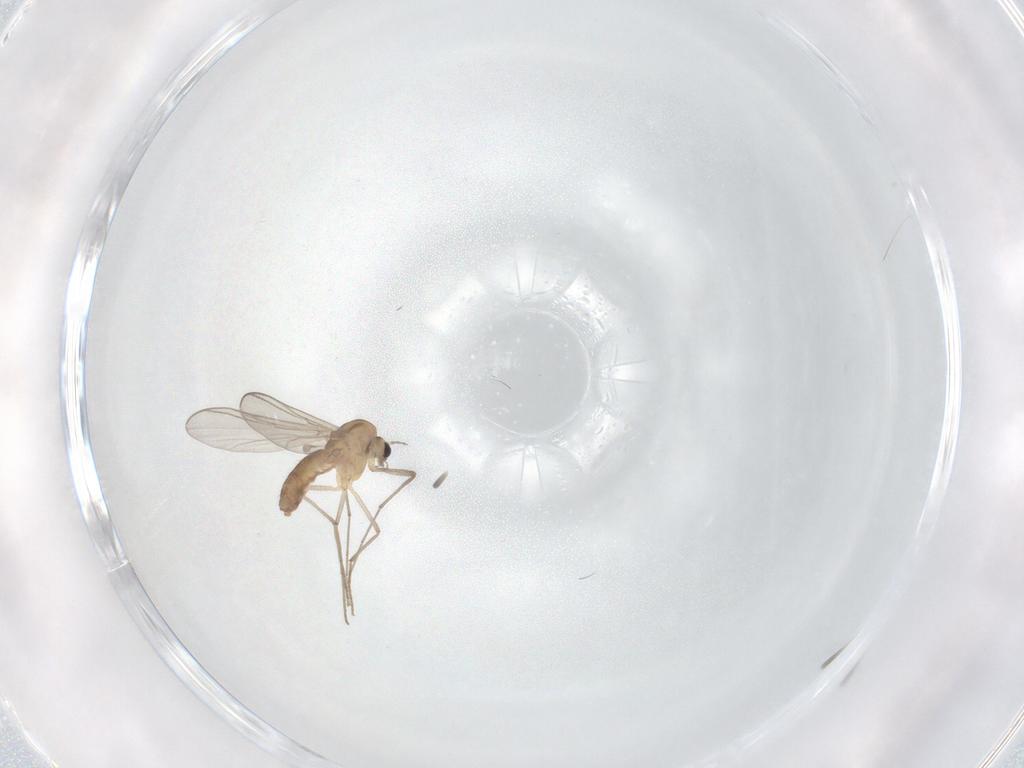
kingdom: Animalia
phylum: Arthropoda
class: Insecta
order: Diptera
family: Chironomidae
